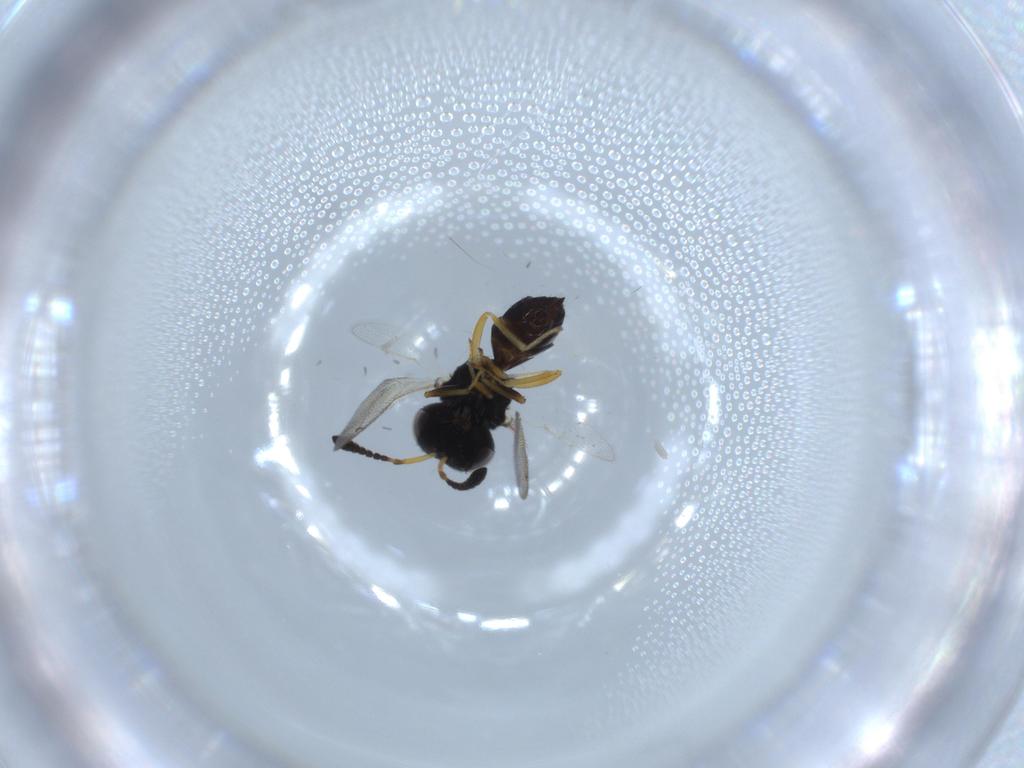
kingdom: Animalia
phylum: Arthropoda
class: Insecta
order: Hymenoptera
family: Pteromalidae
